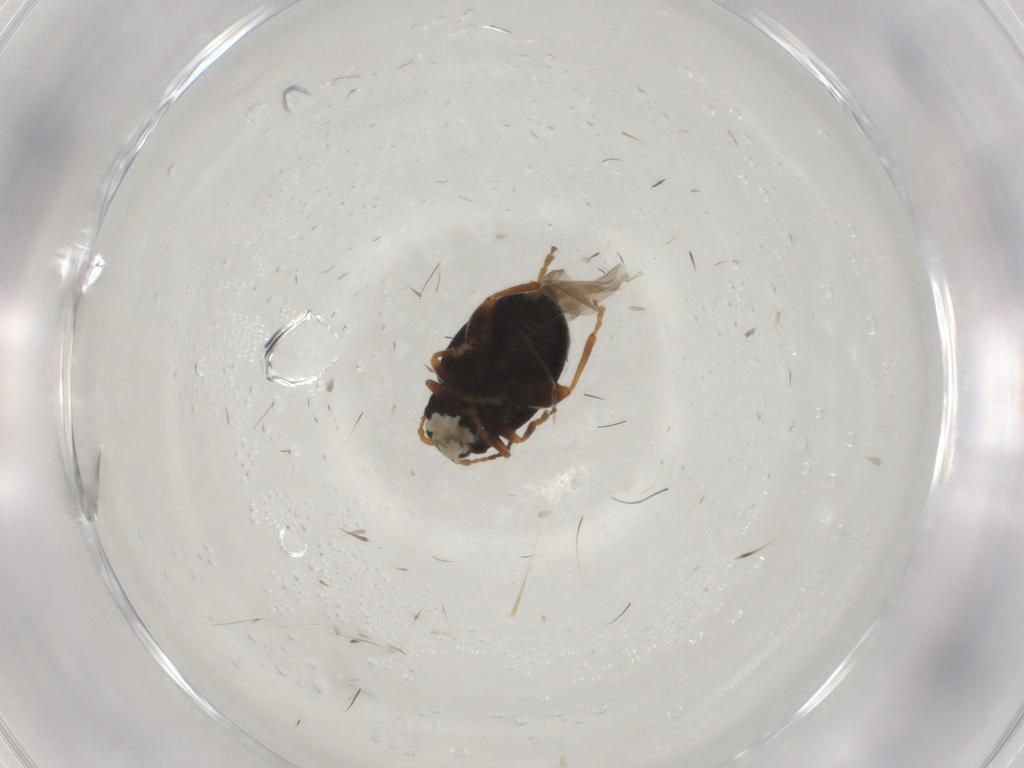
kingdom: Animalia
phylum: Arthropoda
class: Insecta
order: Coleoptera
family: Chrysomelidae
